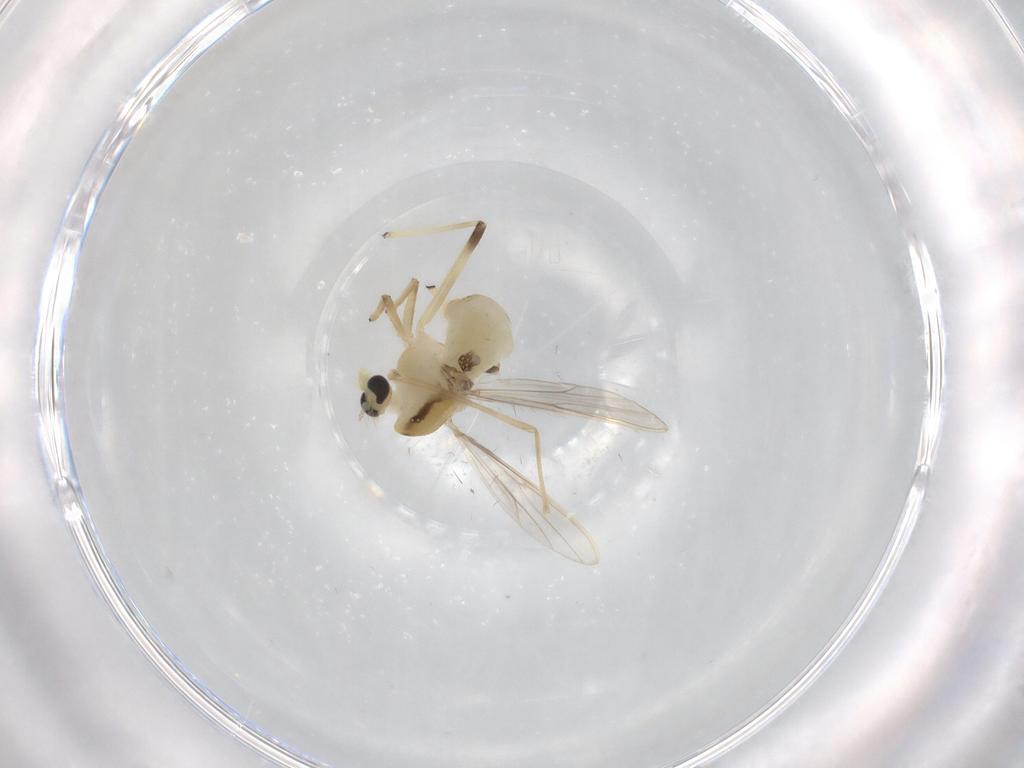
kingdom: Animalia
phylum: Arthropoda
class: Insecta
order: Diptera
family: Chironomidae
